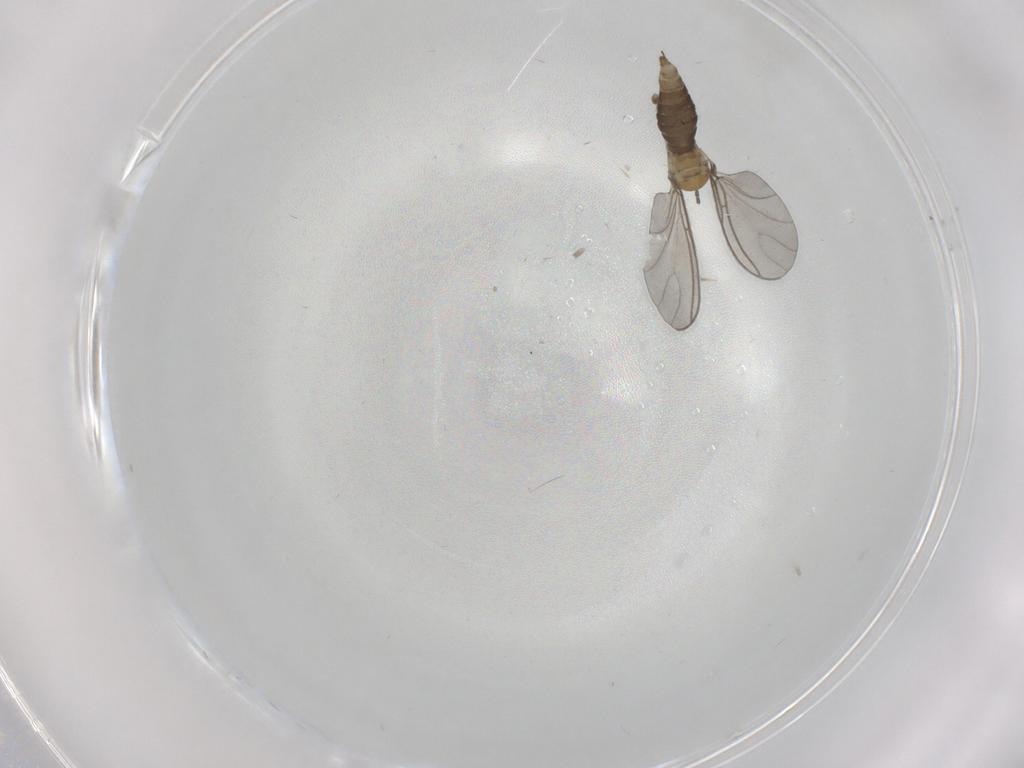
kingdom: Animalia
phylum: Arthropoda
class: Insecta
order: Diptera
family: Sciaridae
